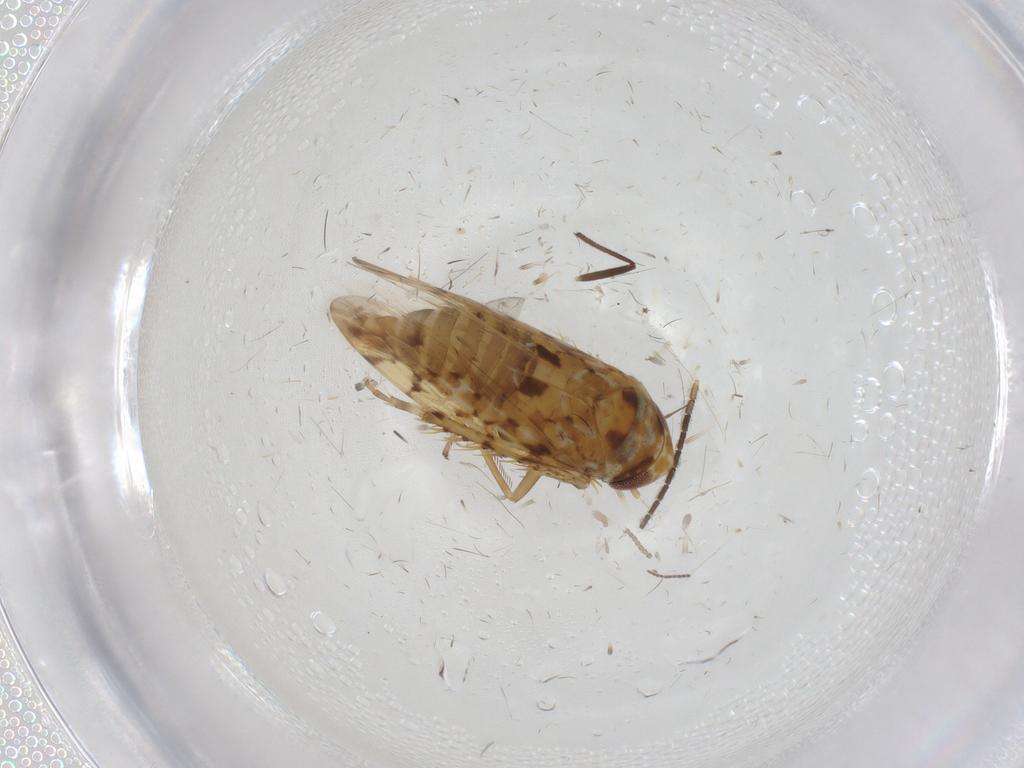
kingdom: Animalia
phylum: Arthropoda
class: Insecta
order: Hemiptera
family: Cicadellidae
